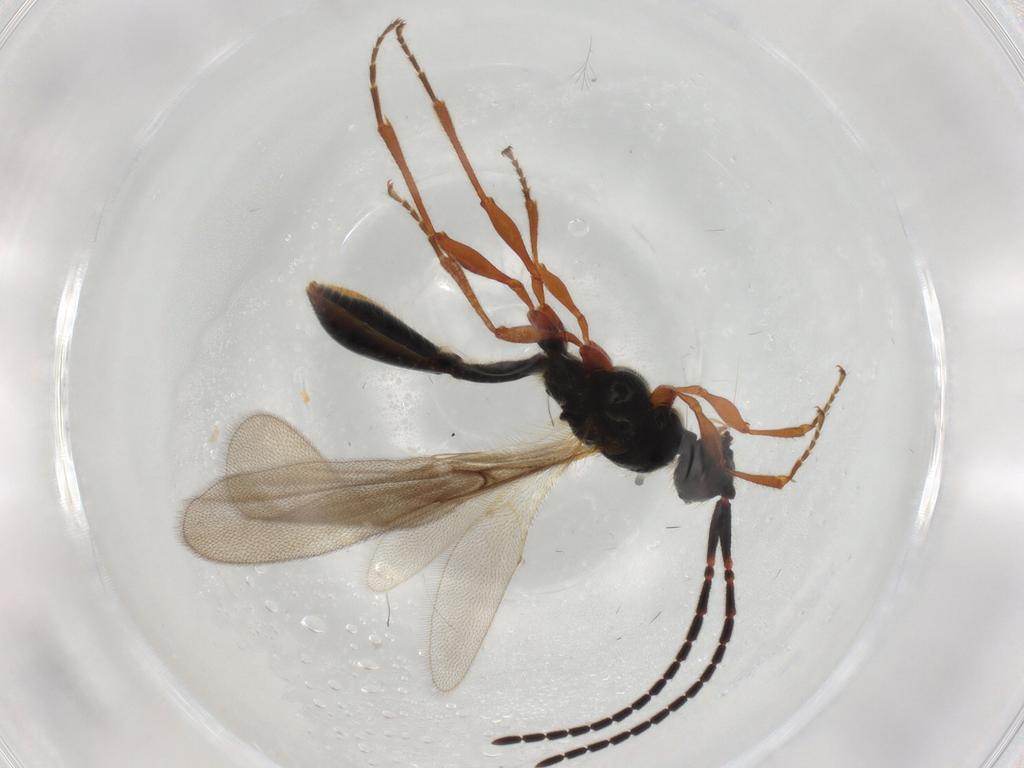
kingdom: Animalia
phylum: Arthropoda
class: Insecta
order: Hymenoptera
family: Diapriidae
